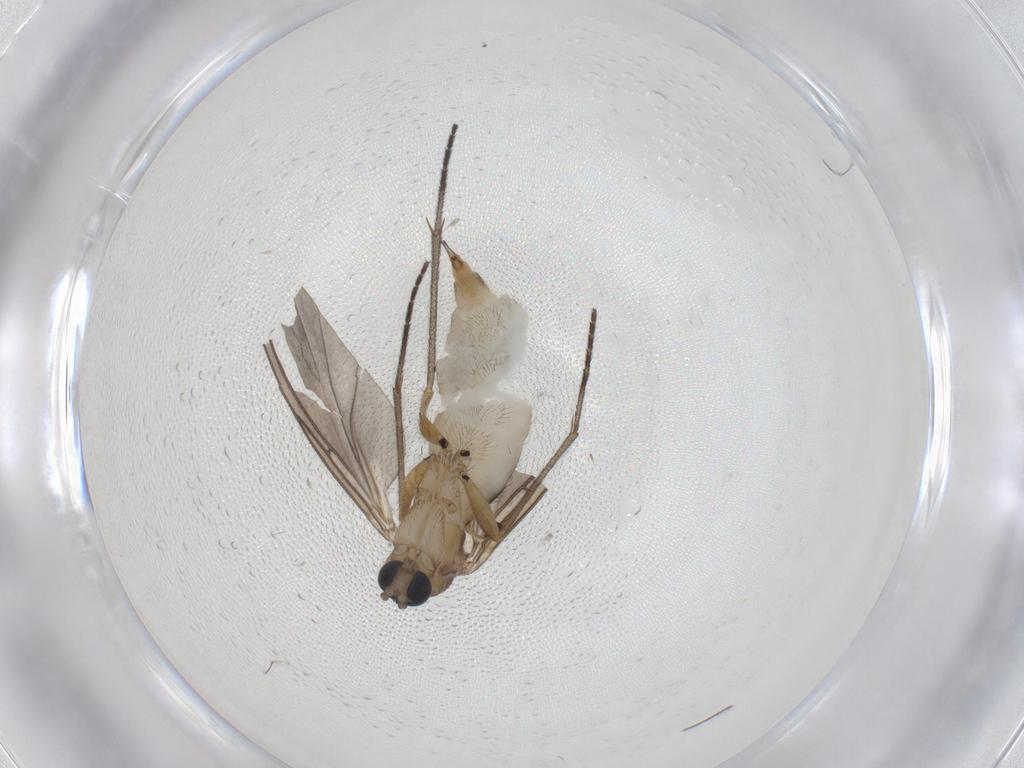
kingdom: Animalia
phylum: Arthropoda
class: Insecta
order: Diptera
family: Sciaridae
